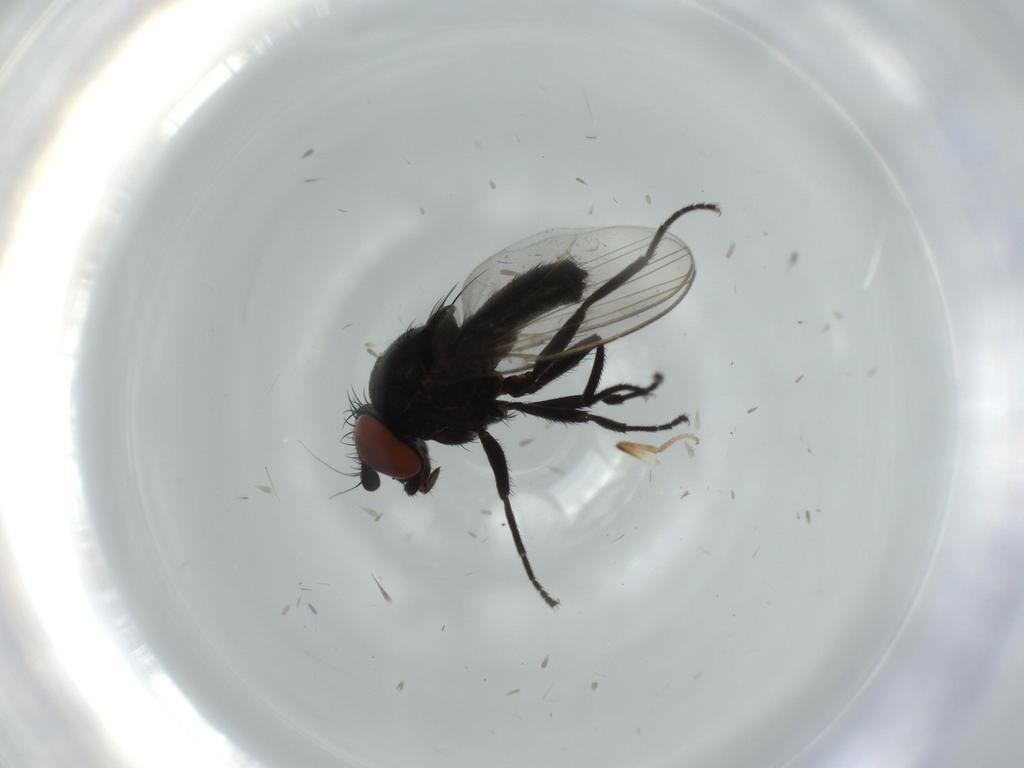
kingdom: Animalia
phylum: Arthropoda
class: Insecta
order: Diptera
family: Milichiidae
